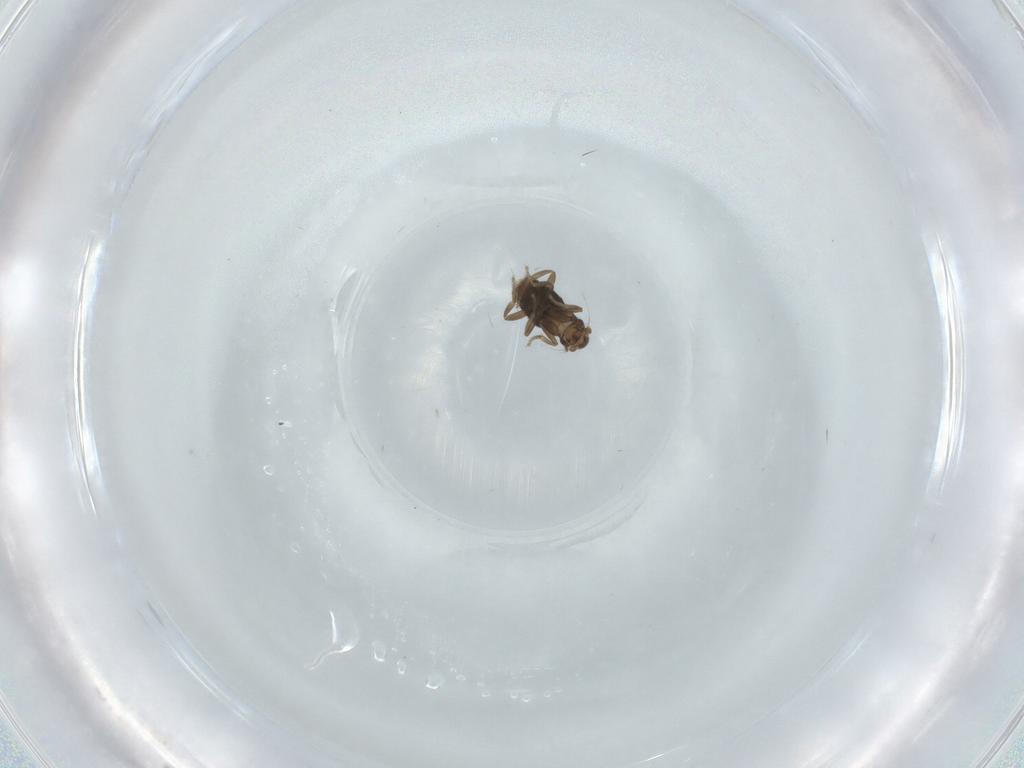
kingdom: Animalia
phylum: Arthropoda
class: Insecta
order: Diptera
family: Phoridae
